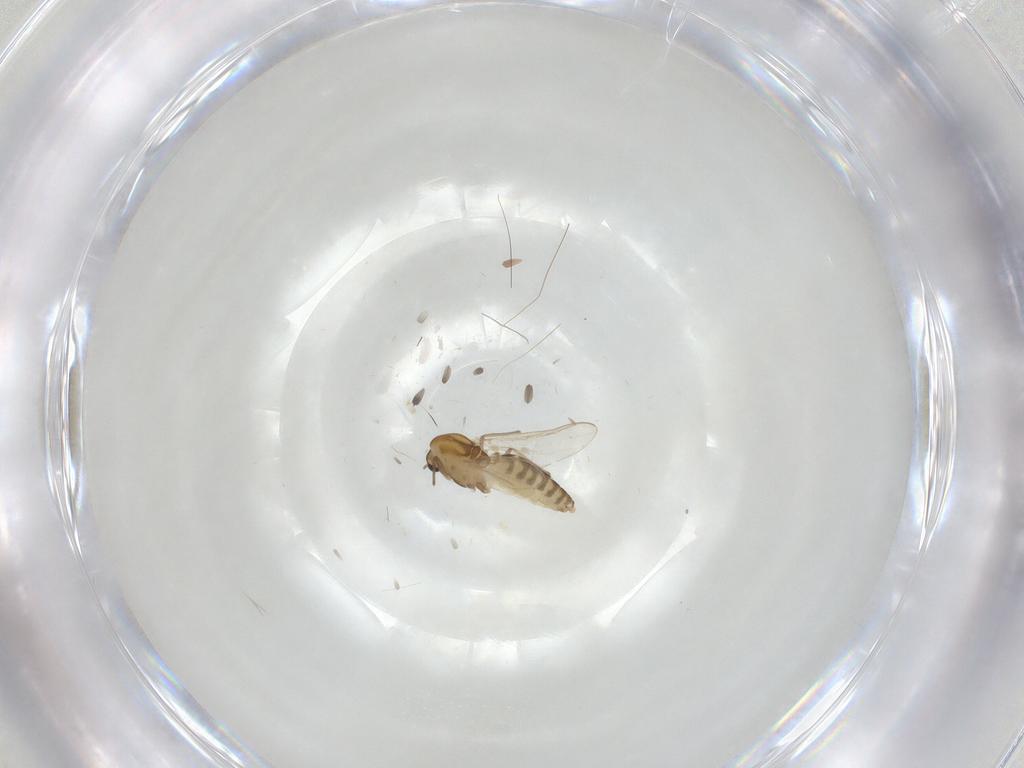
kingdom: Animalia
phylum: Arthropoda
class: Insecta
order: Diptera
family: Chironomidae
